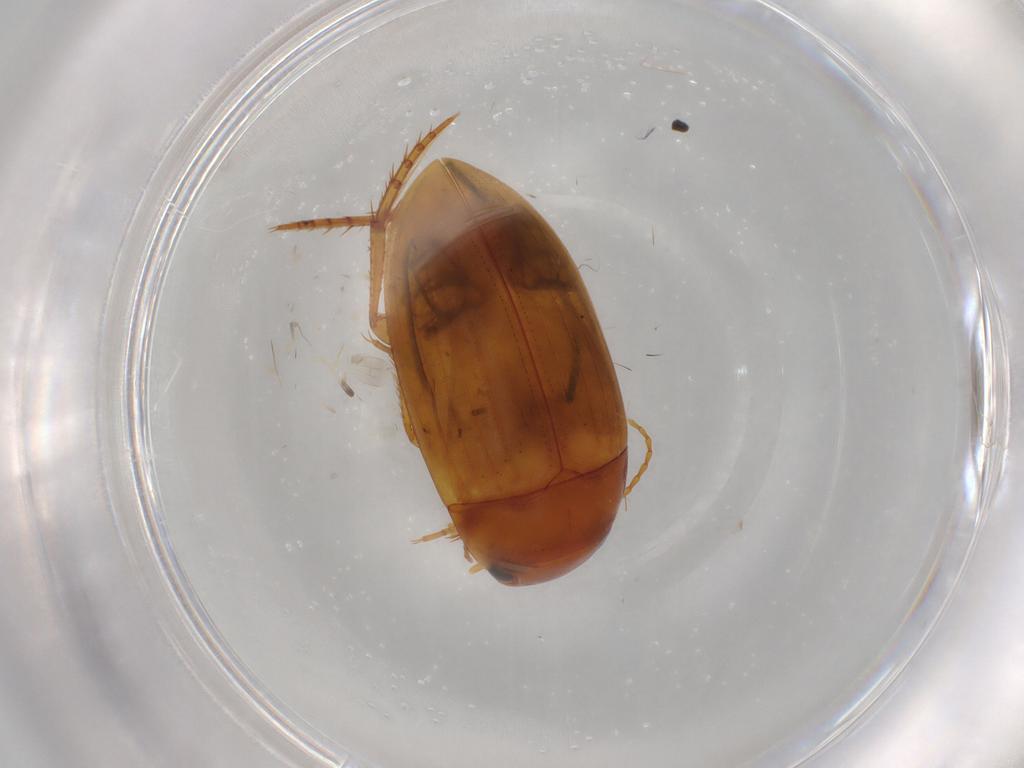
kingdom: Animalia
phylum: Arthropoda
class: Insecta
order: Coleoptera
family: Dytiscidae
